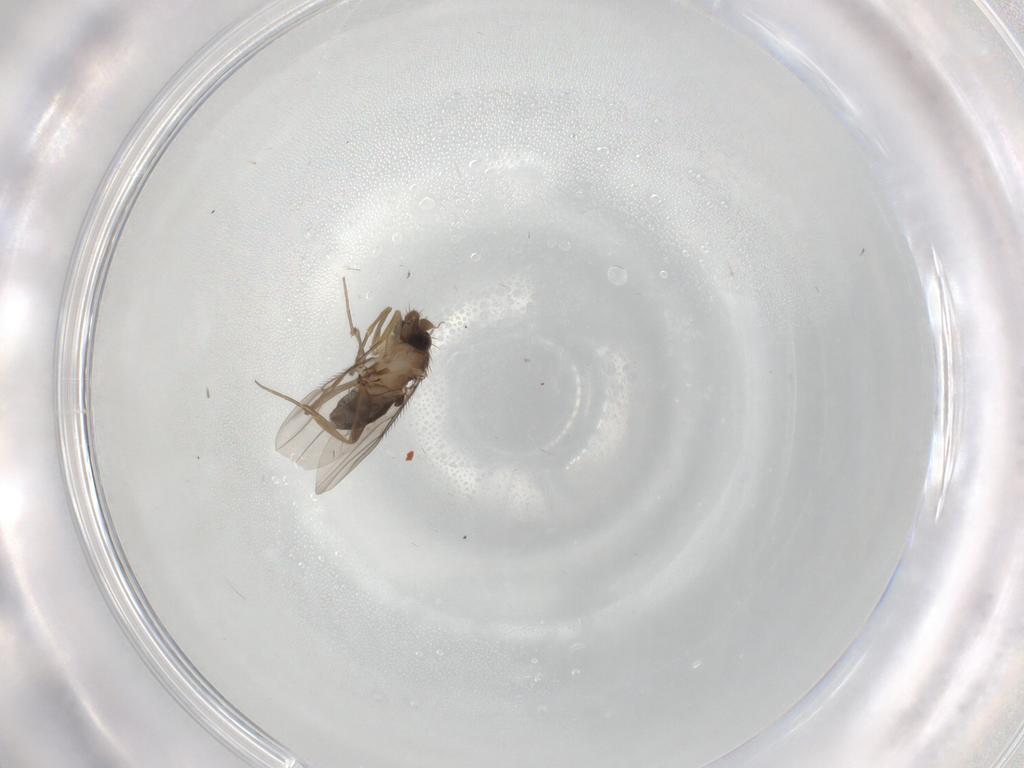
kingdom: Animalia
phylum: Arthropoda
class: Insecta
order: Diptera
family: Phoridae
